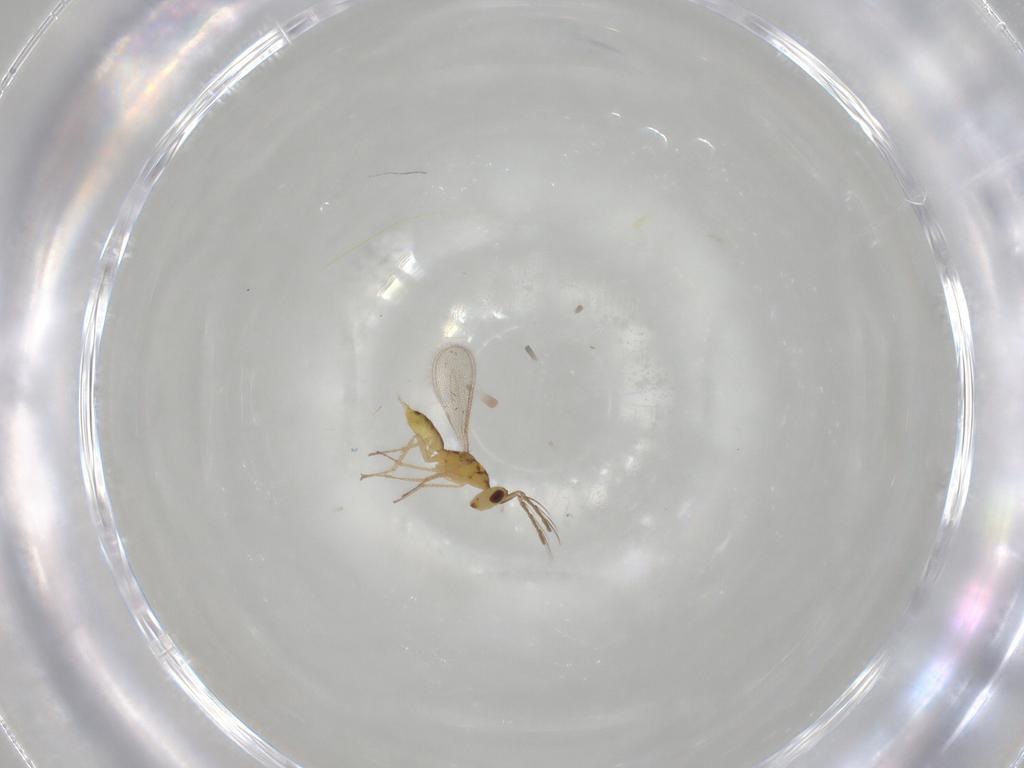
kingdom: Animalia
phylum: Arthropoda
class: Insecta
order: Hymenoptera
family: Eulophidae
